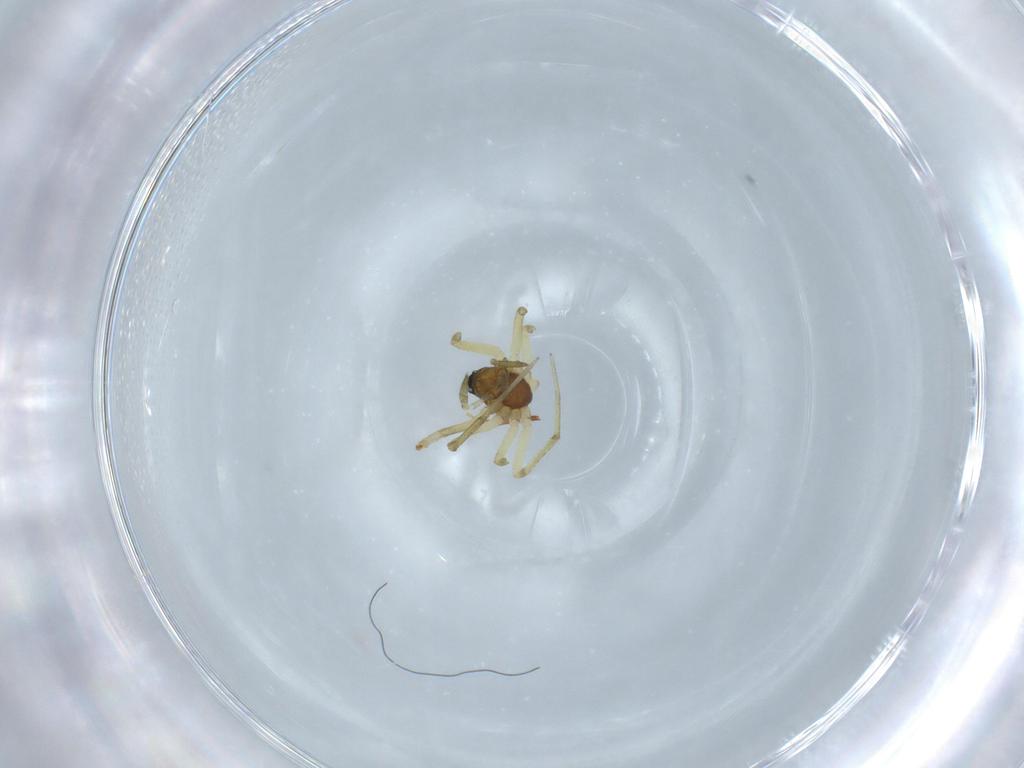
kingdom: Animalia
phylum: Arthropoda
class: Arachnida
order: Araneae
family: Linyphiidae
